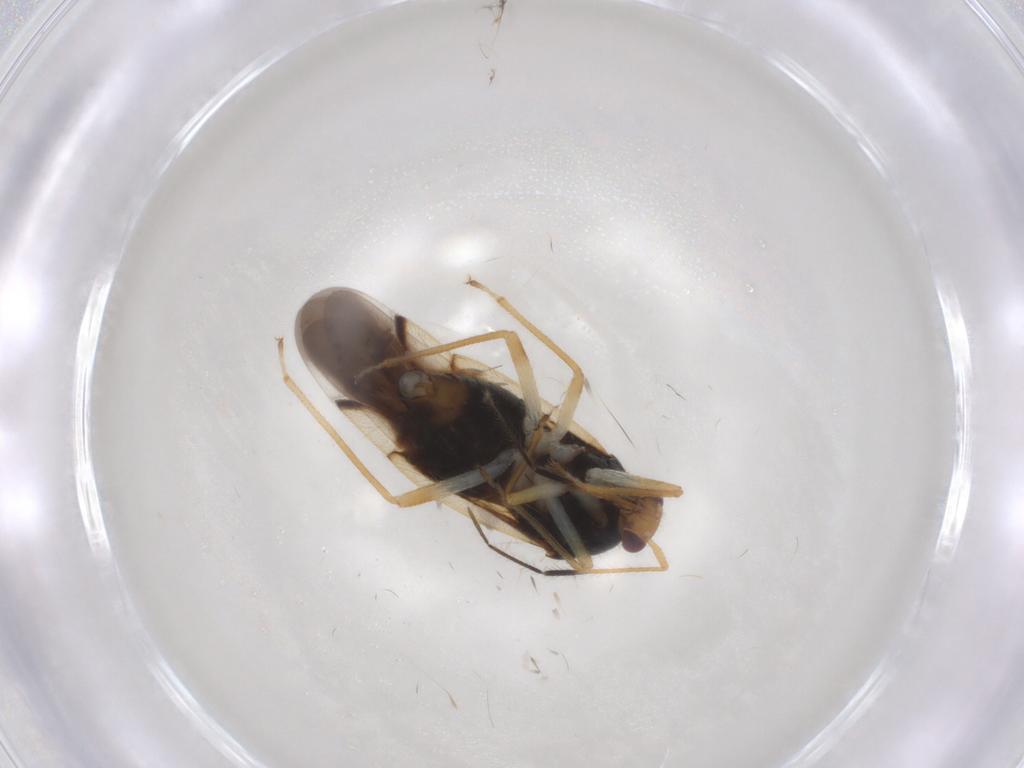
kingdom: Animalia
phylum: Arthropoda
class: Insecta
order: Hemiptera
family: Miridae
